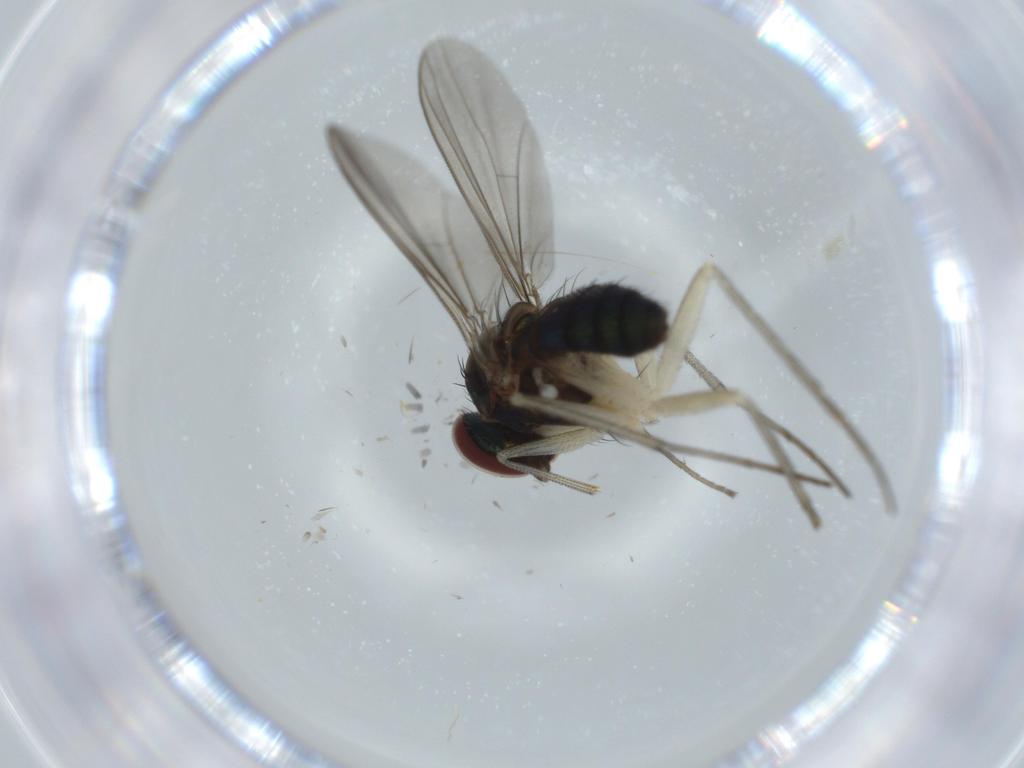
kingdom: Animalia
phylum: Arthropoda
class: Insecta
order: Diptera
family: Dolichopodidae
